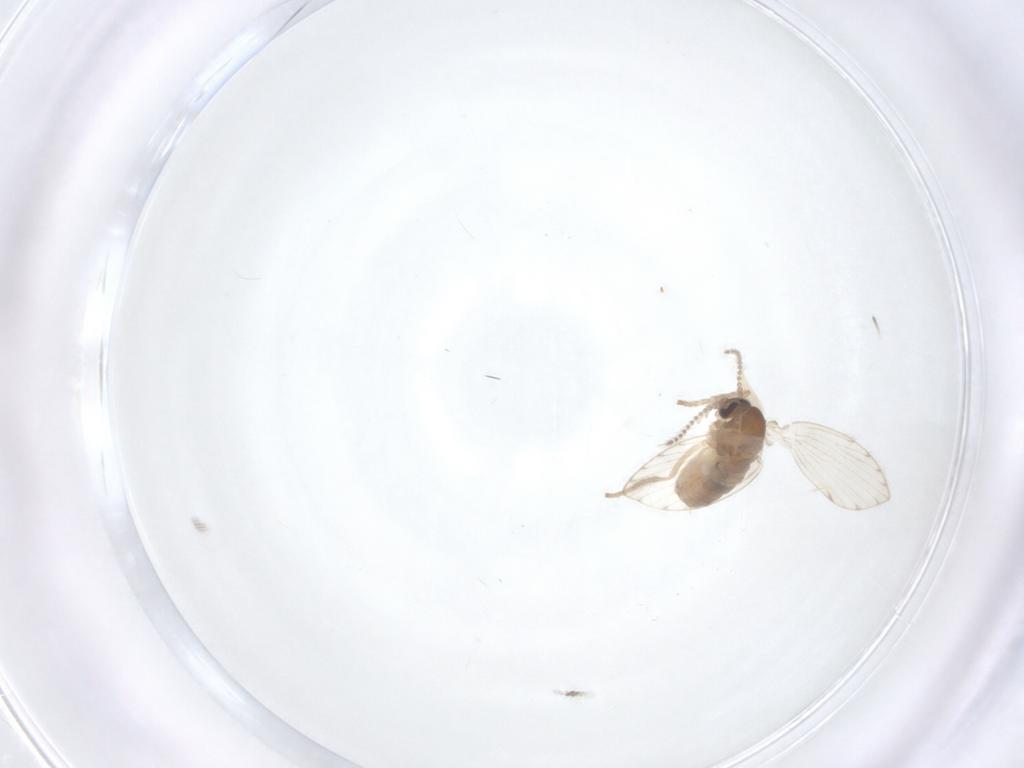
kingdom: Animalia
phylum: Arthropoda
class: Insecta
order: Diptera
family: Psychodidae
